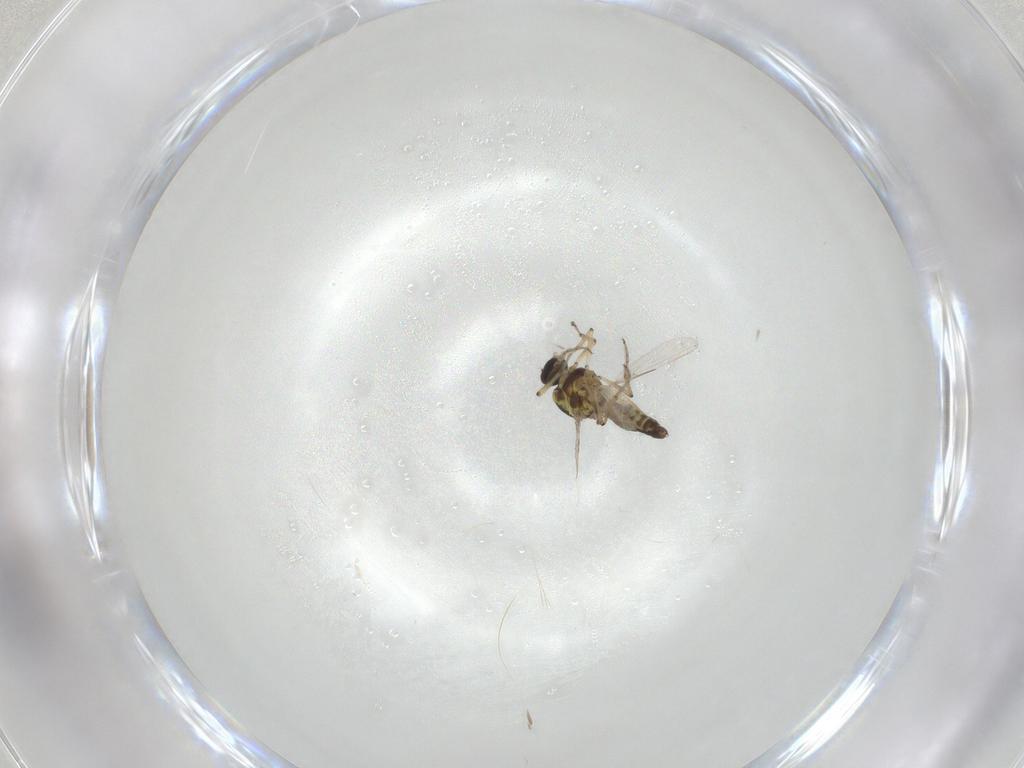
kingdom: Animalia
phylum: Arthropoda
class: Insecta
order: Diptera
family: Ceratopogonidae
